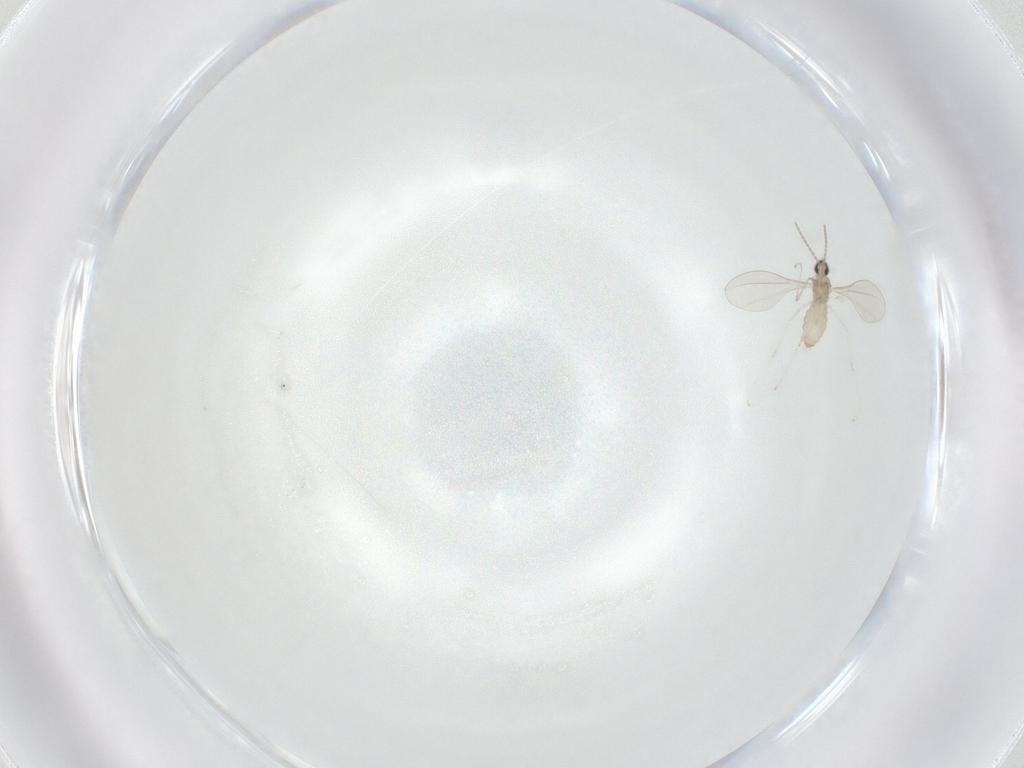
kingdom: Animalia
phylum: Arthropoda
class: Insecta
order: Diptera
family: Cecidomyiidae
